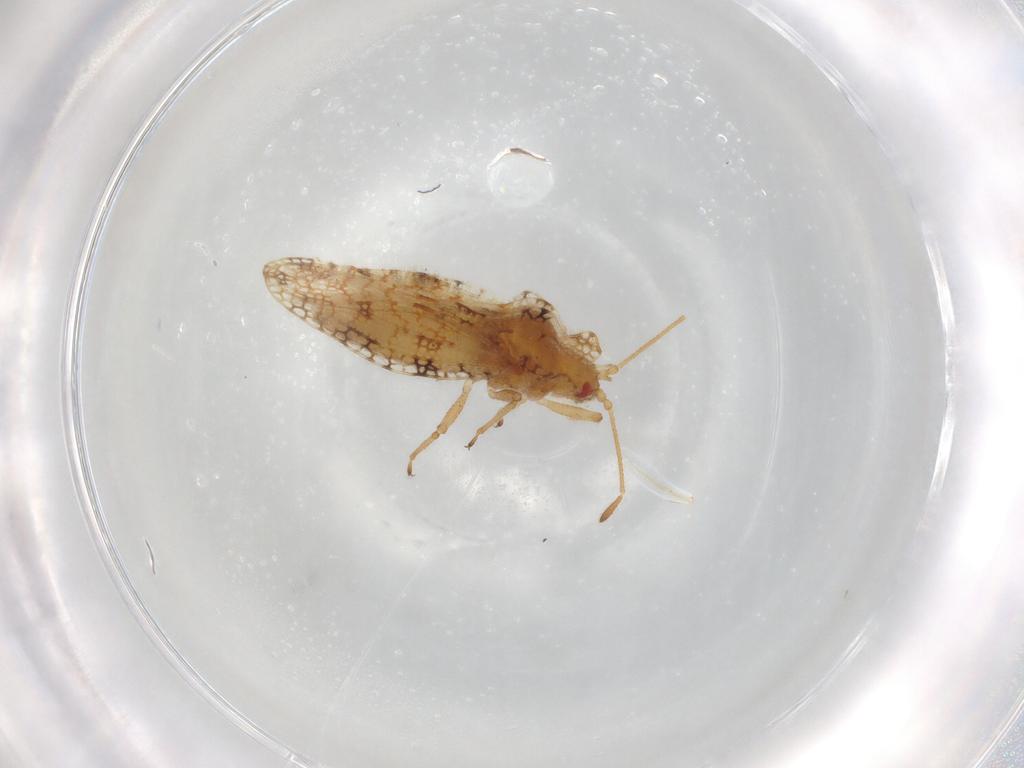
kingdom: Animalia
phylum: Arthropoda
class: Insecta
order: Hemiptera
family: Tingidae
